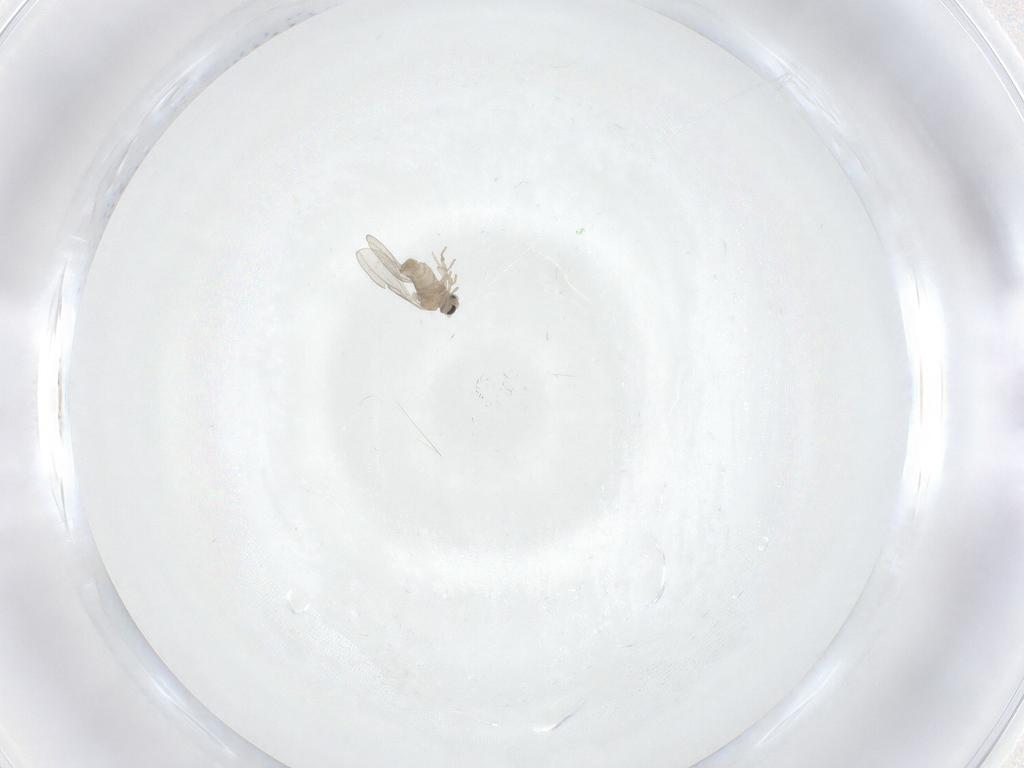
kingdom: Animalia
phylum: Arthropoda
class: Insecta
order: Diptera
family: Cecidomyiidae
